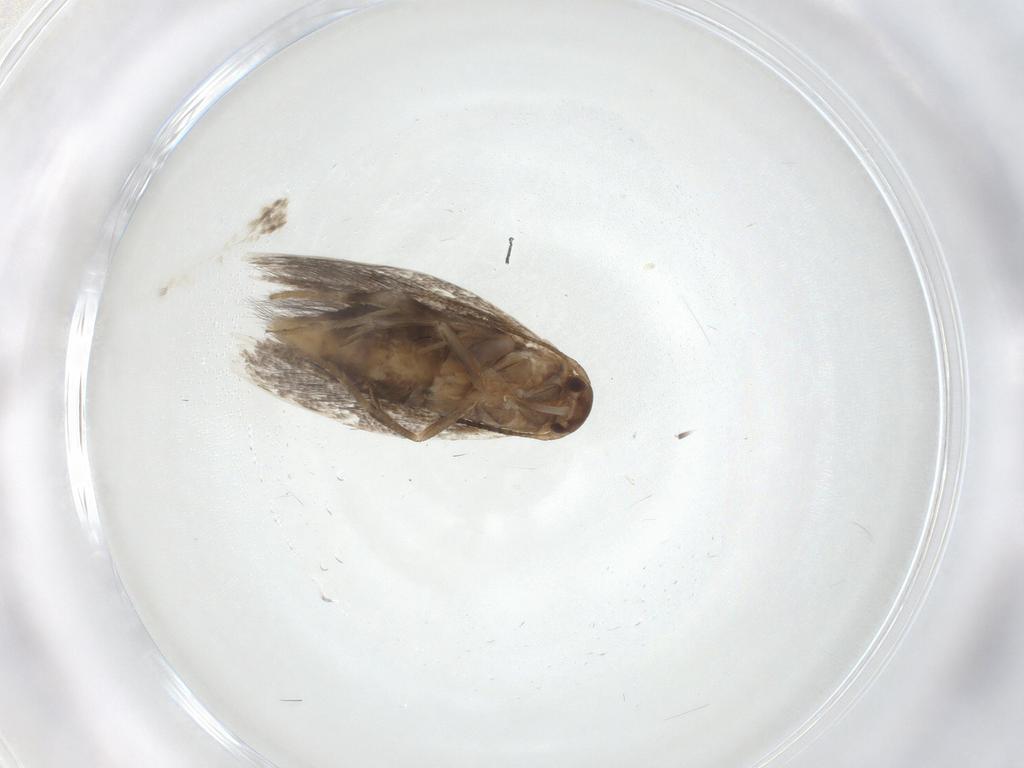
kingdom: Animalia
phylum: Arthropoda
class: Insecta
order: Lepidoptera
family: Elachistidae
